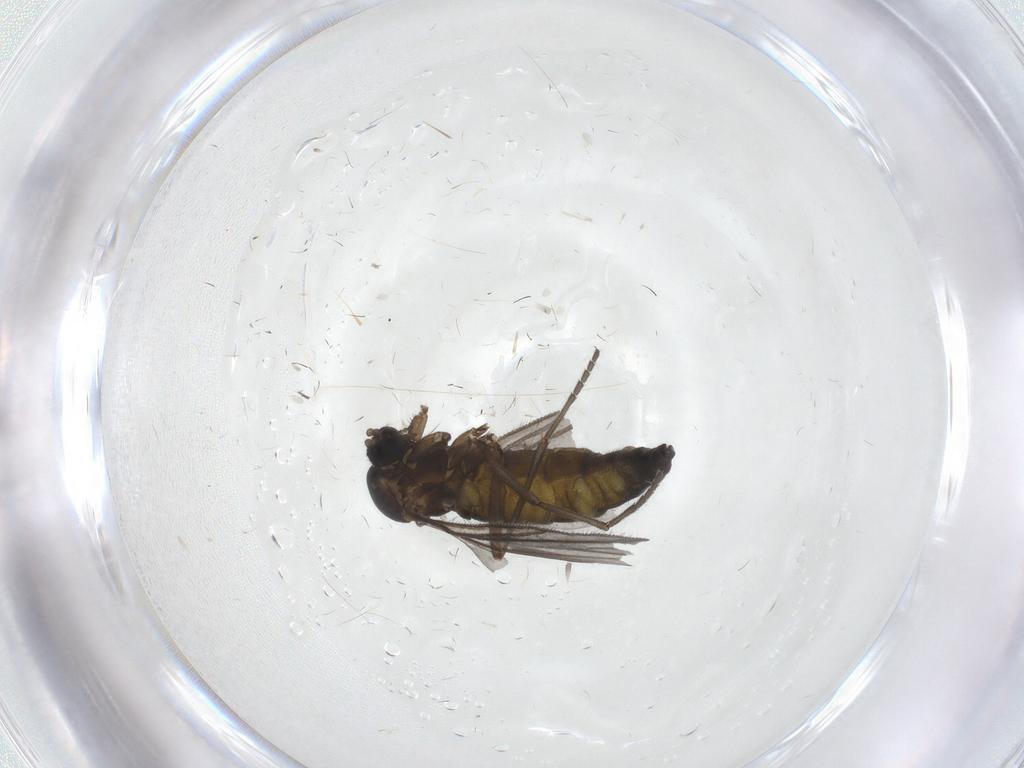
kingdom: Animalia
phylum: Arthropoda
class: Insecta
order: Diptera
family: Sciaridae
